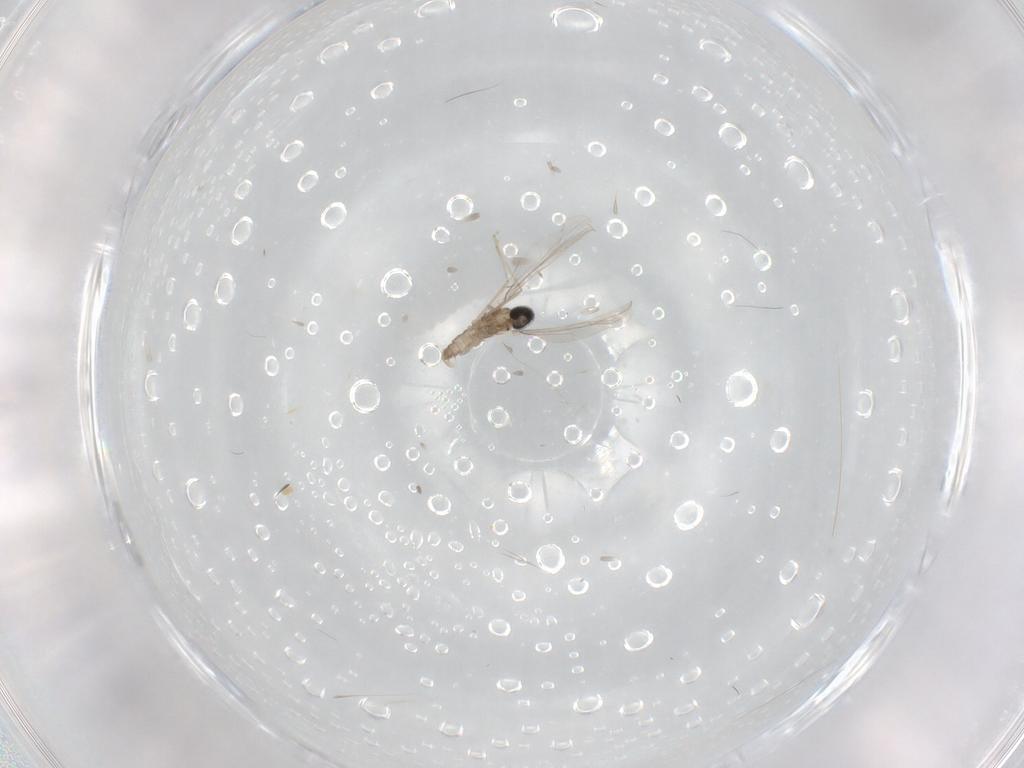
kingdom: Animalia
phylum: Arthropoda
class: Insecta
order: Diptera
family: Cecidomyiidae
